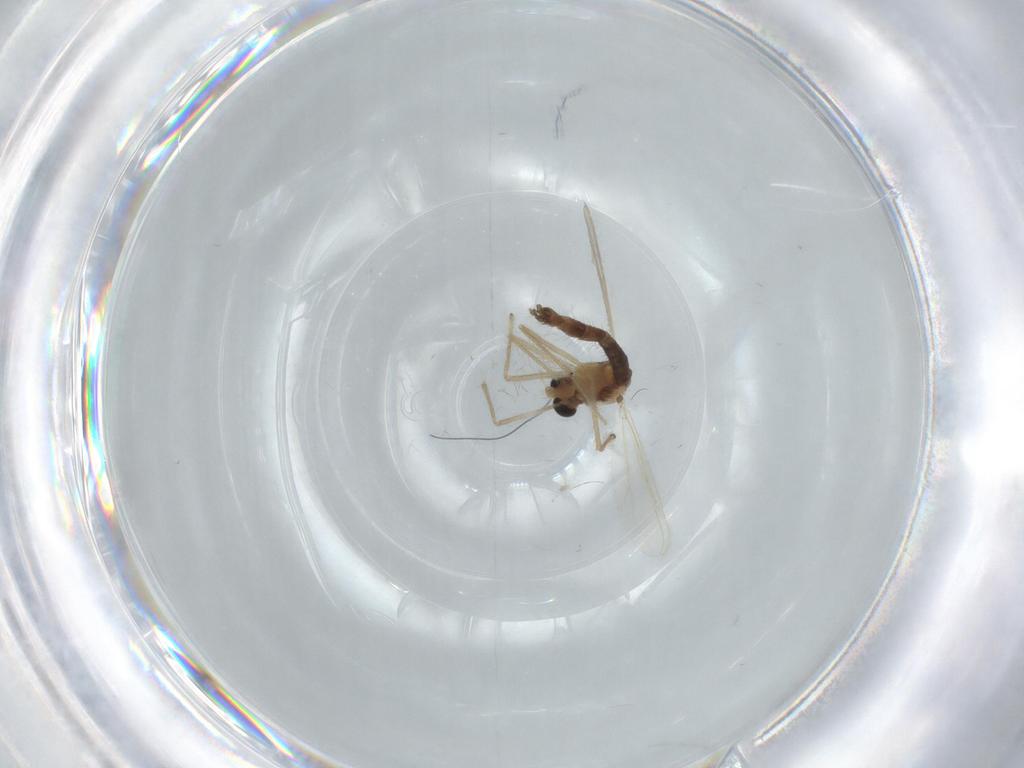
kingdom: Animalia
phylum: Arthropoda
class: Insecta
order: Diptera
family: Chironomidae
